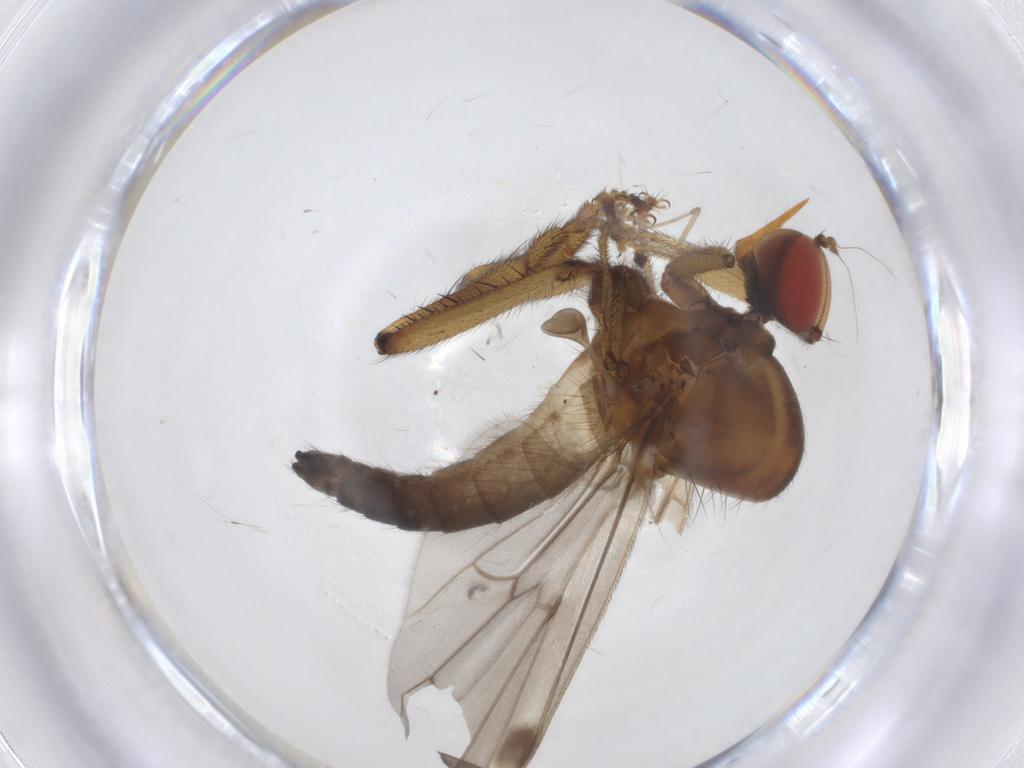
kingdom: Animalia
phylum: Arthropoda
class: Insecta
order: Diptera
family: Hybotidae
